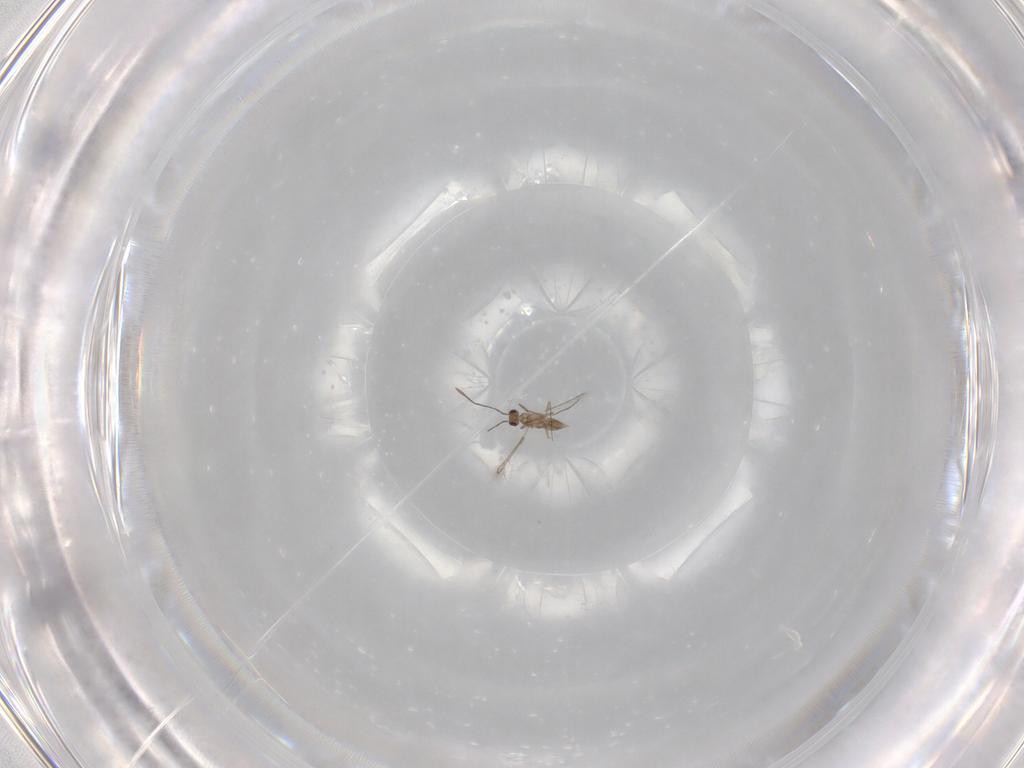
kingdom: Animalia
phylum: Arthropoda
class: Insecta
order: Hymenoptera
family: Mymaridae
